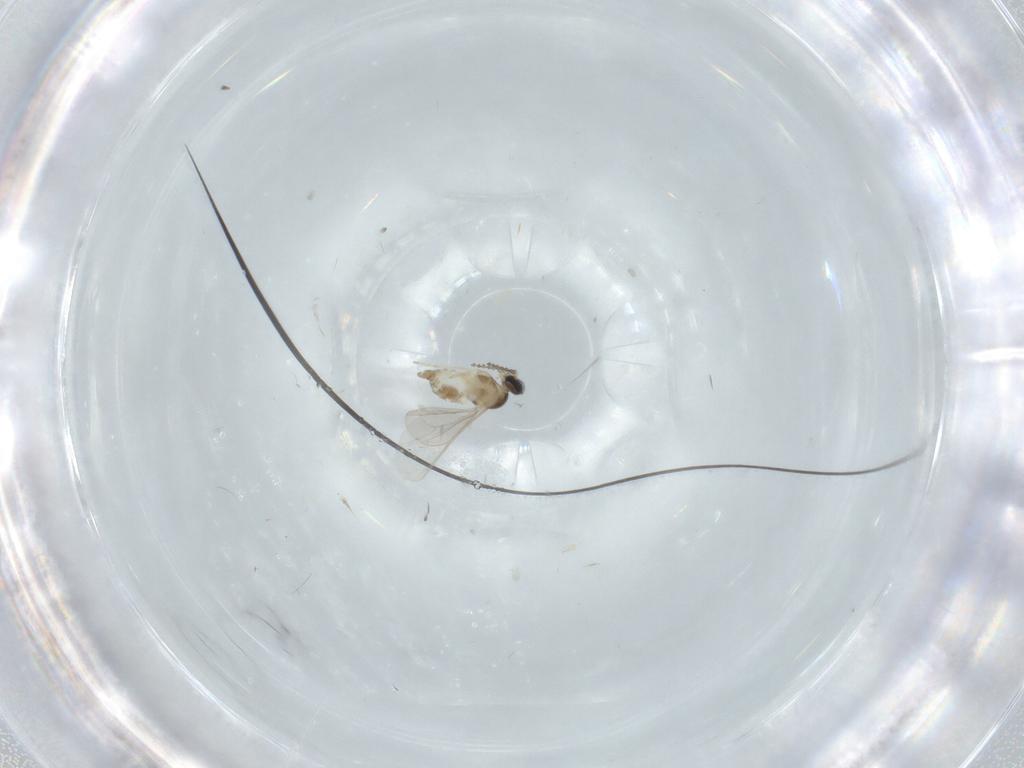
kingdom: Animalia
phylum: Arthropoda
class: Insecta
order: Diptera
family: Cecidomyiidae
